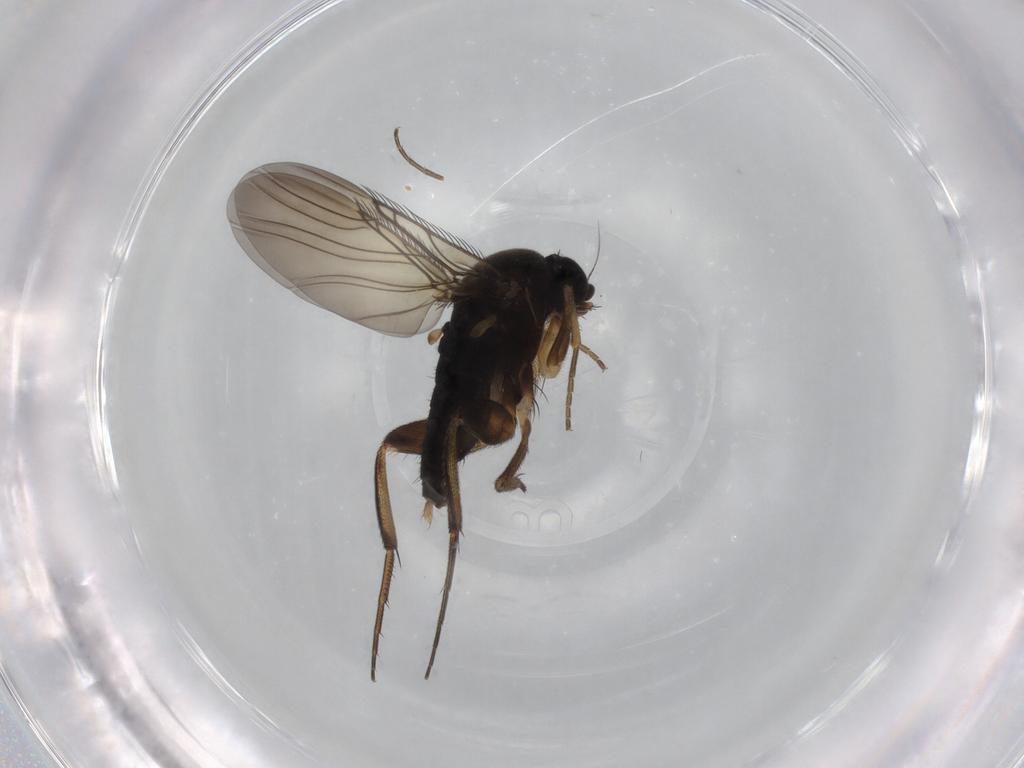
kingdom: Animalia
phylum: Arthropoda
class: Insecta
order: Diptera
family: Phoridae
